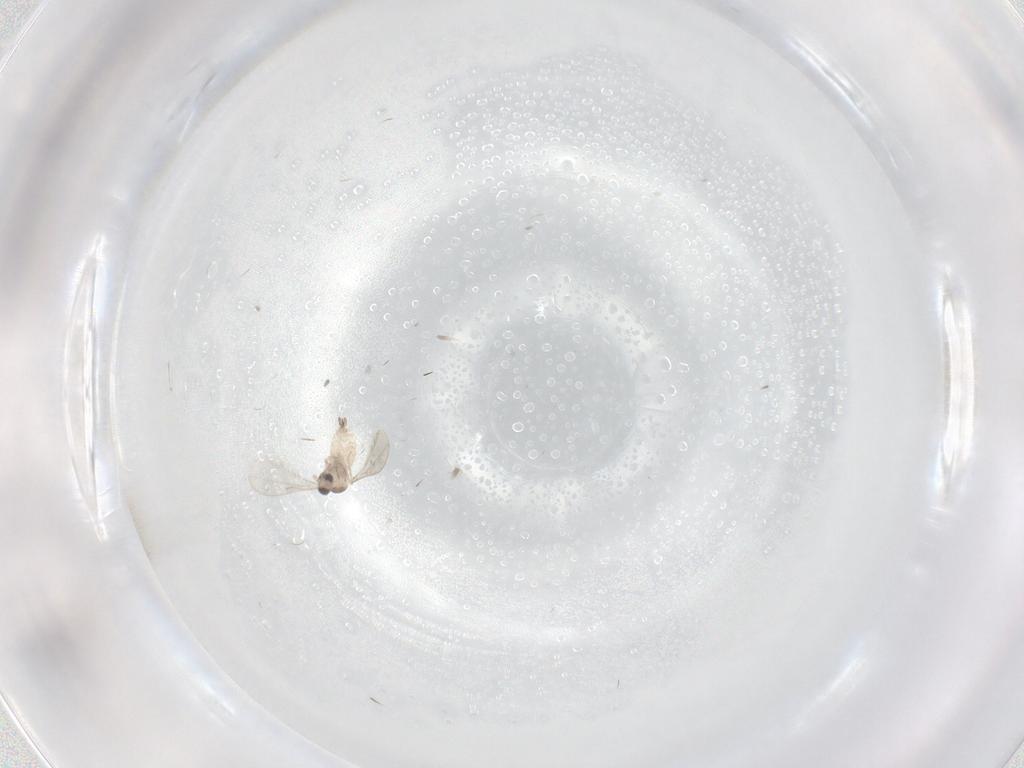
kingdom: Animalia
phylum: Arthropoda
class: Insecta
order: Diptera
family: Cecidomyiidae
